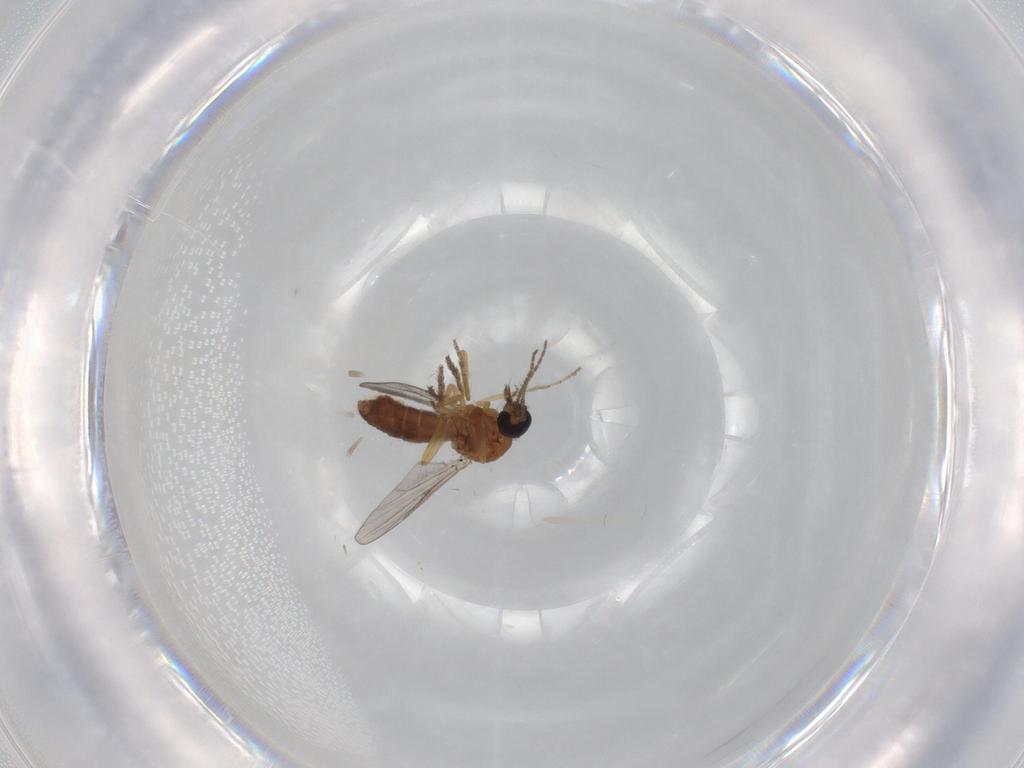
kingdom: Animalia
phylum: Arthropoda
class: Insecta
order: Diptera
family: Ceratopogonidae
